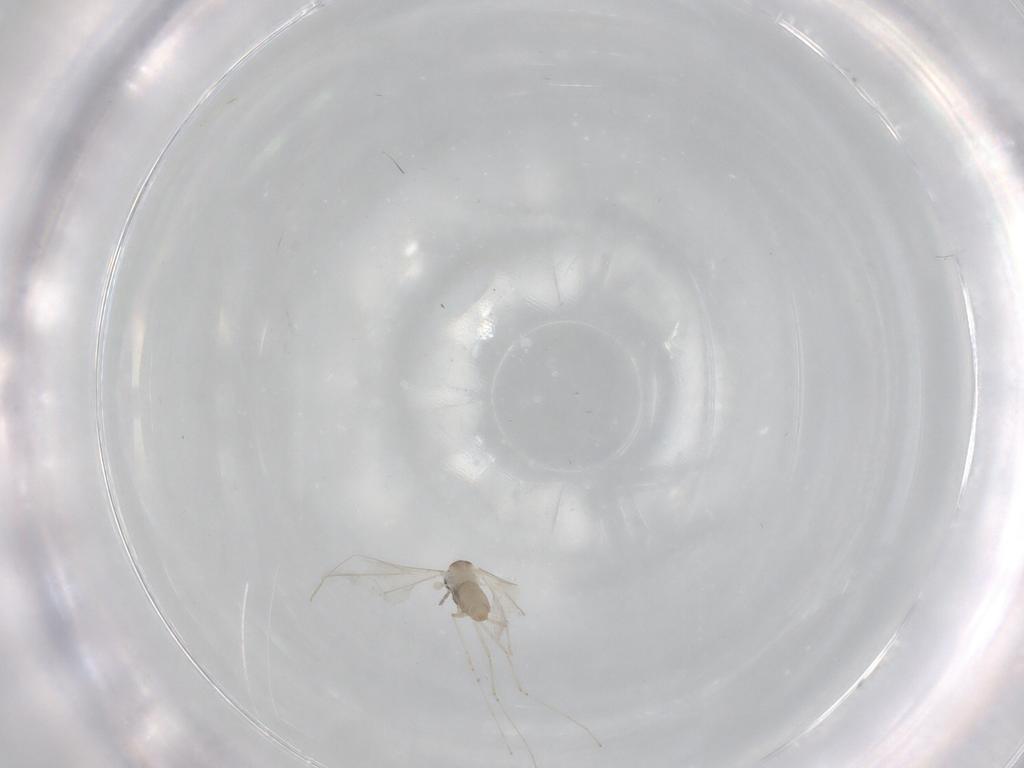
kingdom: Animalia
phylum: Arthropoda
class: Insecta
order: Diptera
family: Cecidomyiidae
